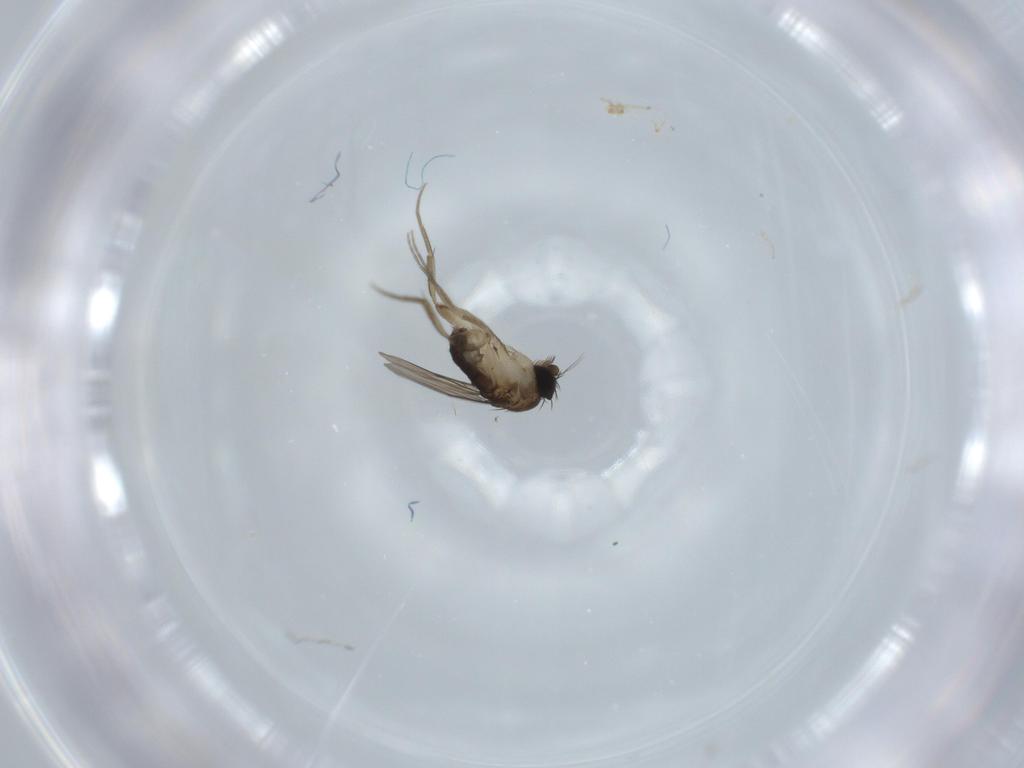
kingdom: Animalia
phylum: Arthropoda
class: Insecta
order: Diptera
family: Phoridae
